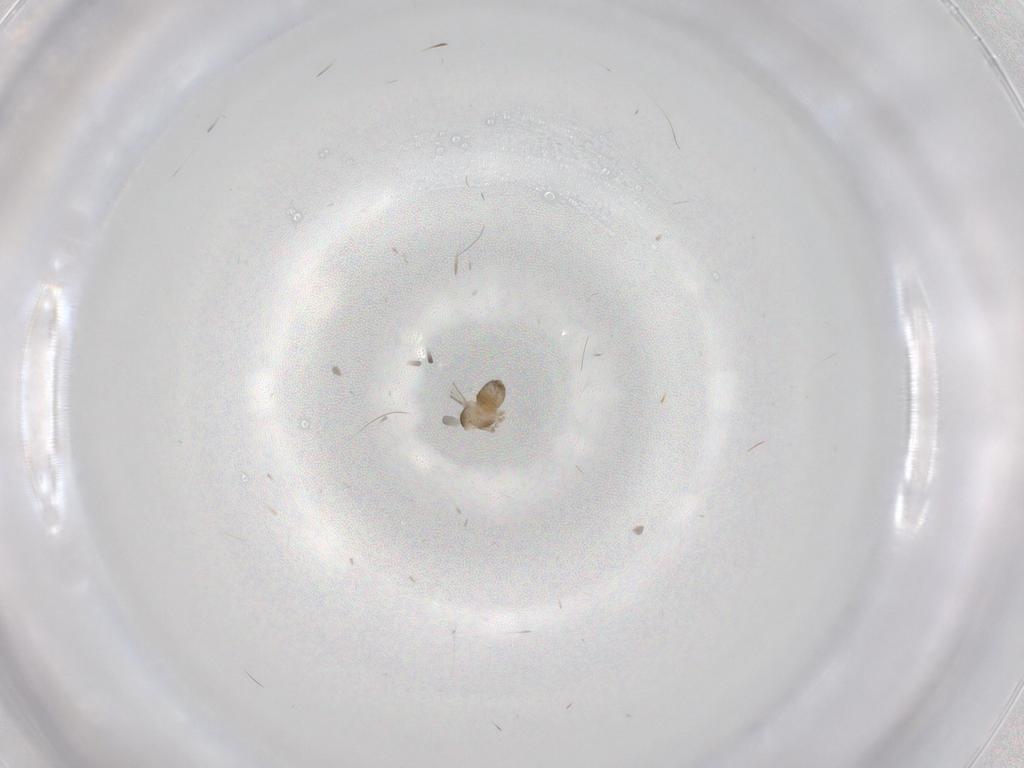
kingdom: Animalia
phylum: Arthropoda
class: Insecta
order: Diptera
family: Cecidomyiidae
